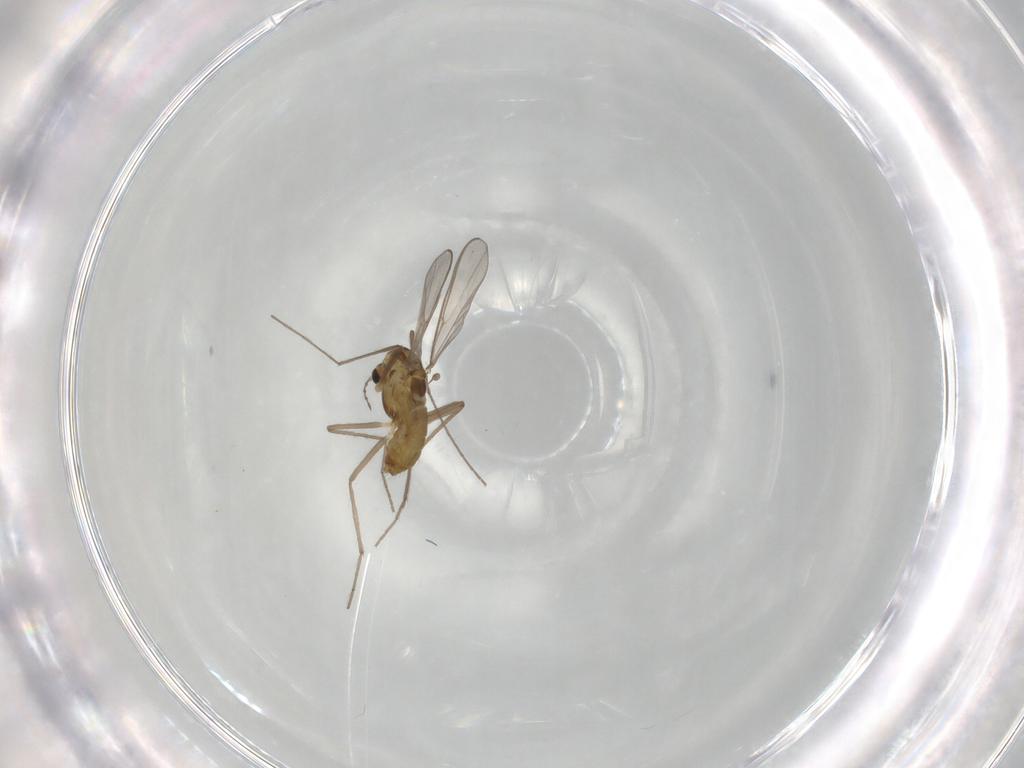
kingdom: Animalia
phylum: Arthropoda
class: Insecta
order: Diptera
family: Chironomidae
